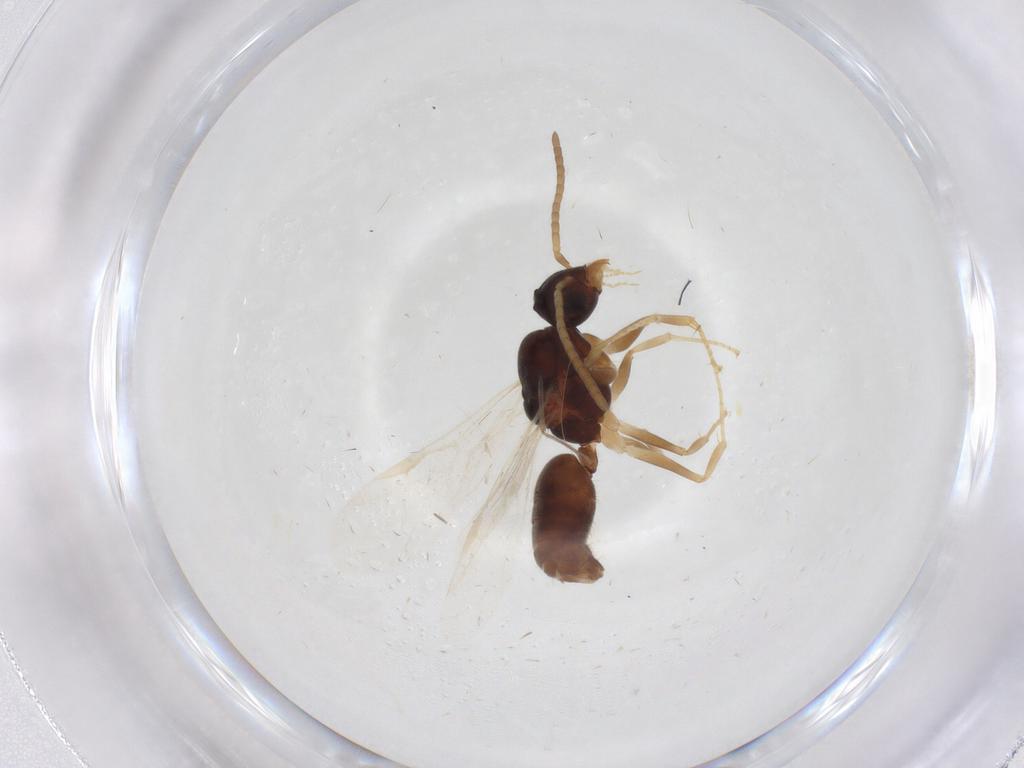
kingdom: Animalia
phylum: Arthropoda
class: Insecta
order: Hymenoptera
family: Formicidae
